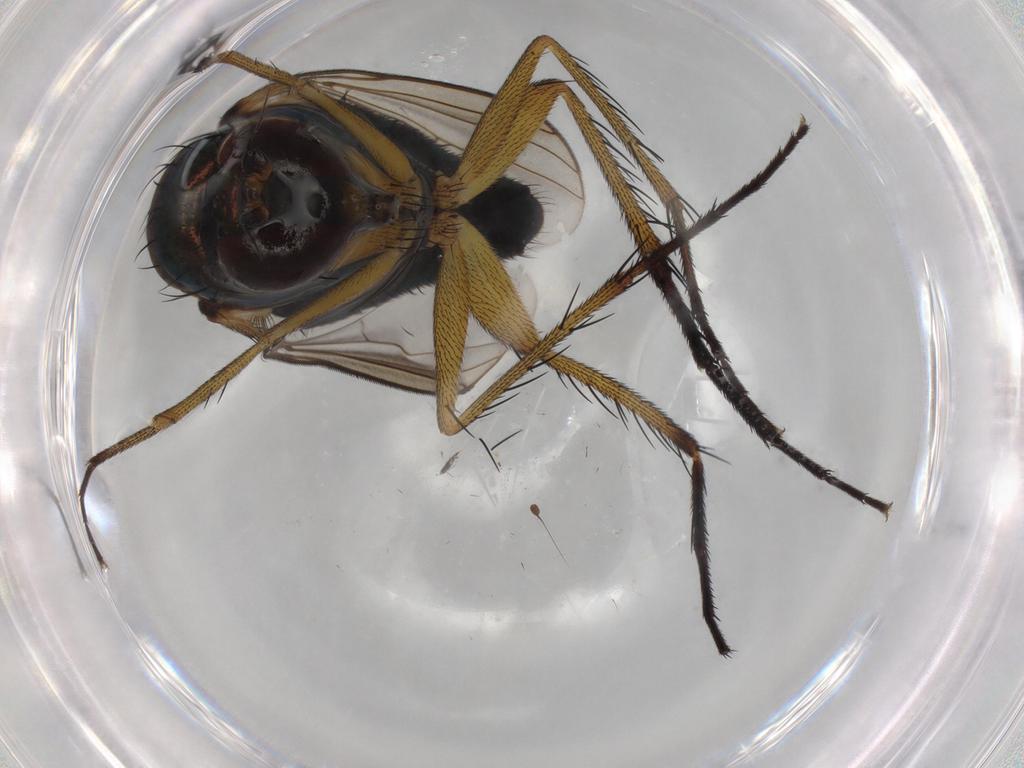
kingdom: Animalia
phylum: Arthropoda
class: Insecta
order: Diptera
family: Dolichopodidae
